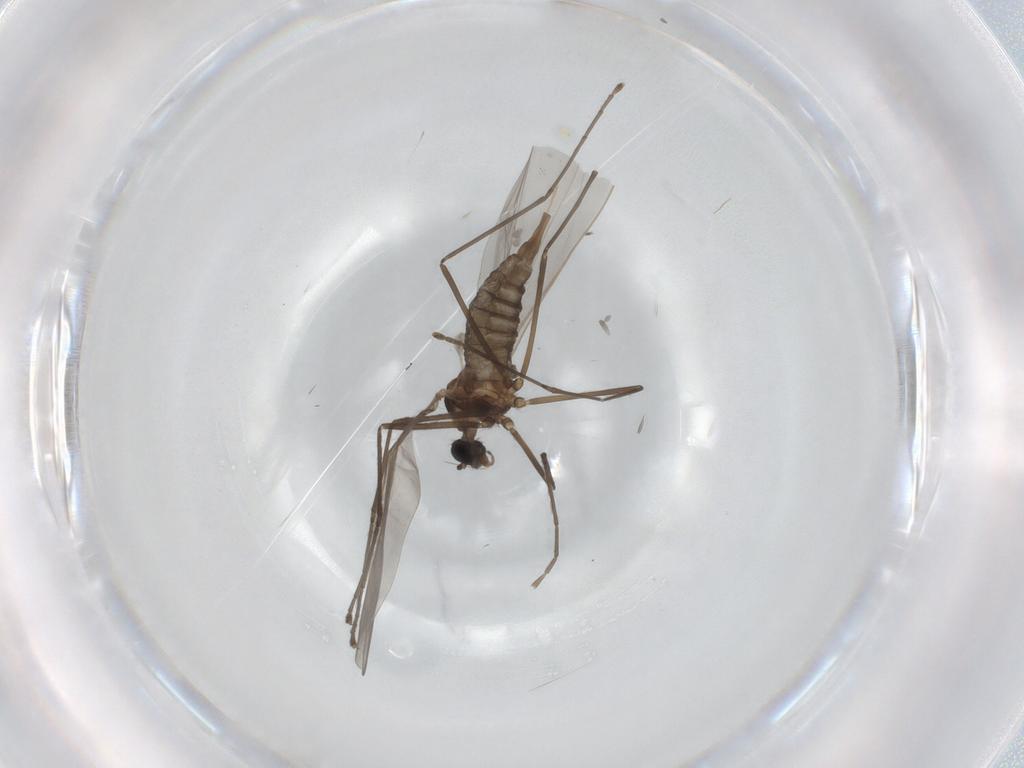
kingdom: Animalia
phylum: Arthropoda
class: Insecta
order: Diptera
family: Cecidomyiidae
